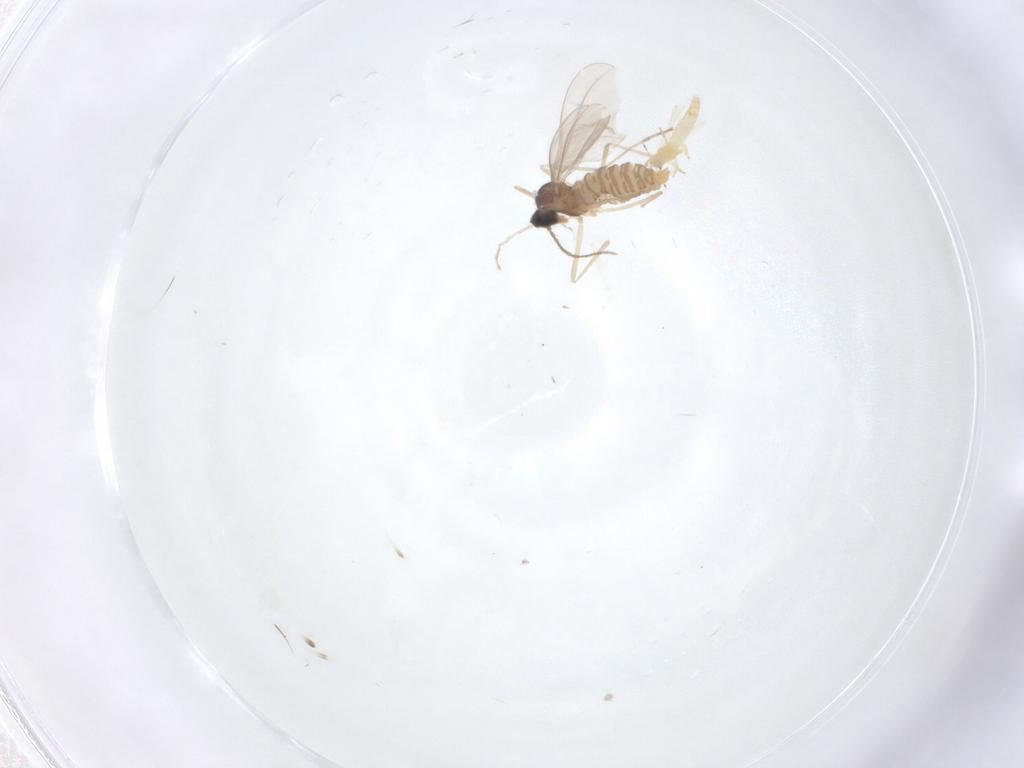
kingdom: Animalia
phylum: Arthropoda
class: Insecta
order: Diptera
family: Cecidomyiidae
